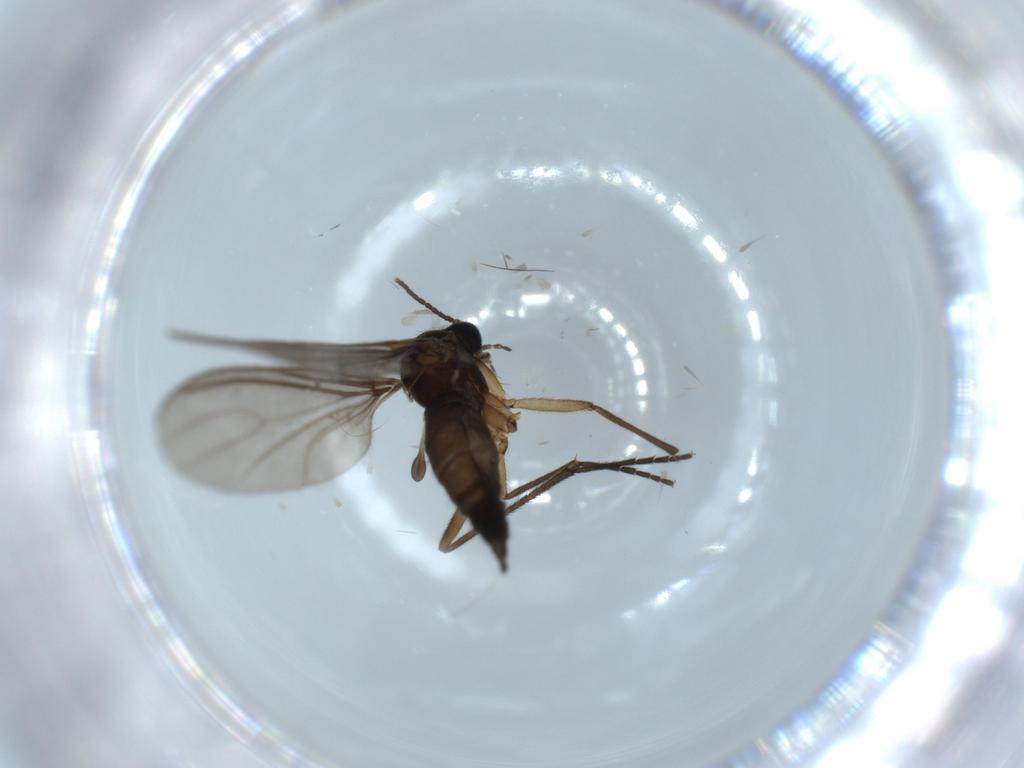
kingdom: Animalia
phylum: Arthropoda
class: Insecta
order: Diptera
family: Sciaridae
